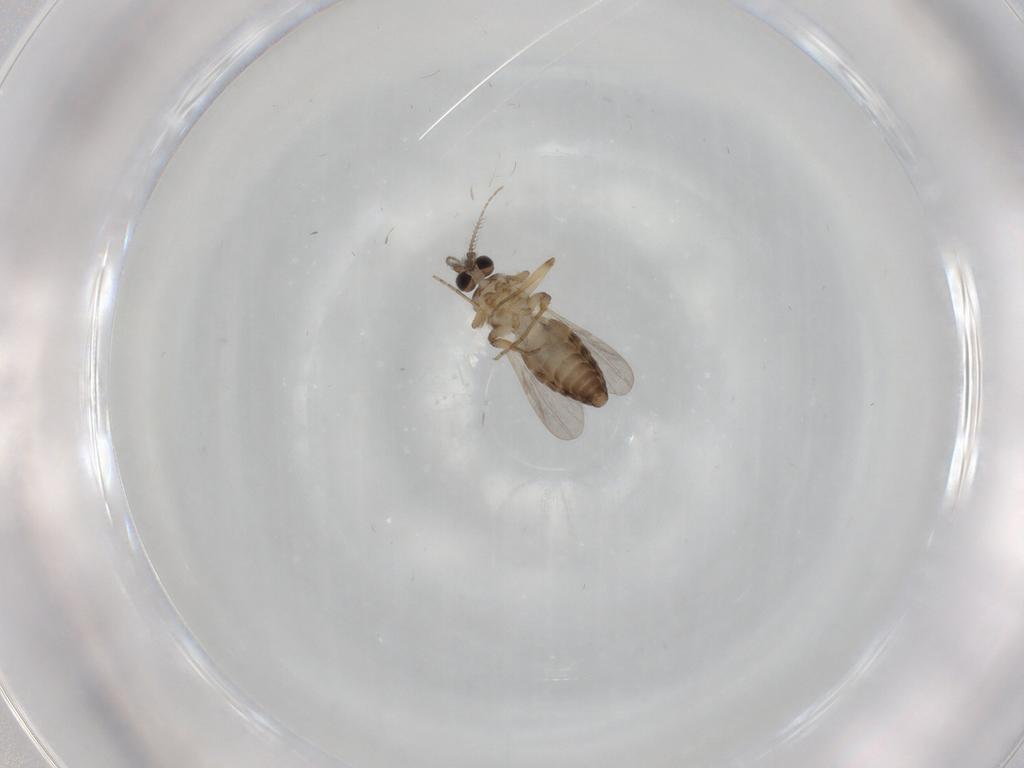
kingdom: Animalia
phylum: Arthropoda
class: Insecta
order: Diptera
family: Ceratopogonidae
